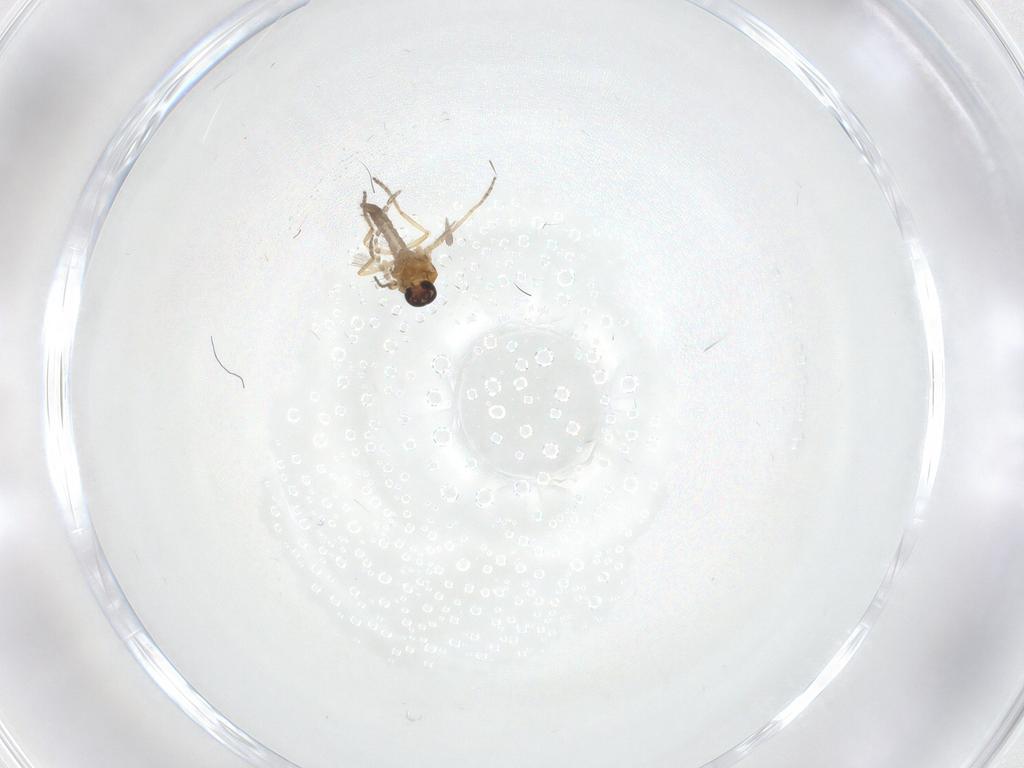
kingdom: Animalia
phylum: Arthropoda
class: Insecta
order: Diptera
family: Ceratopogonidae
